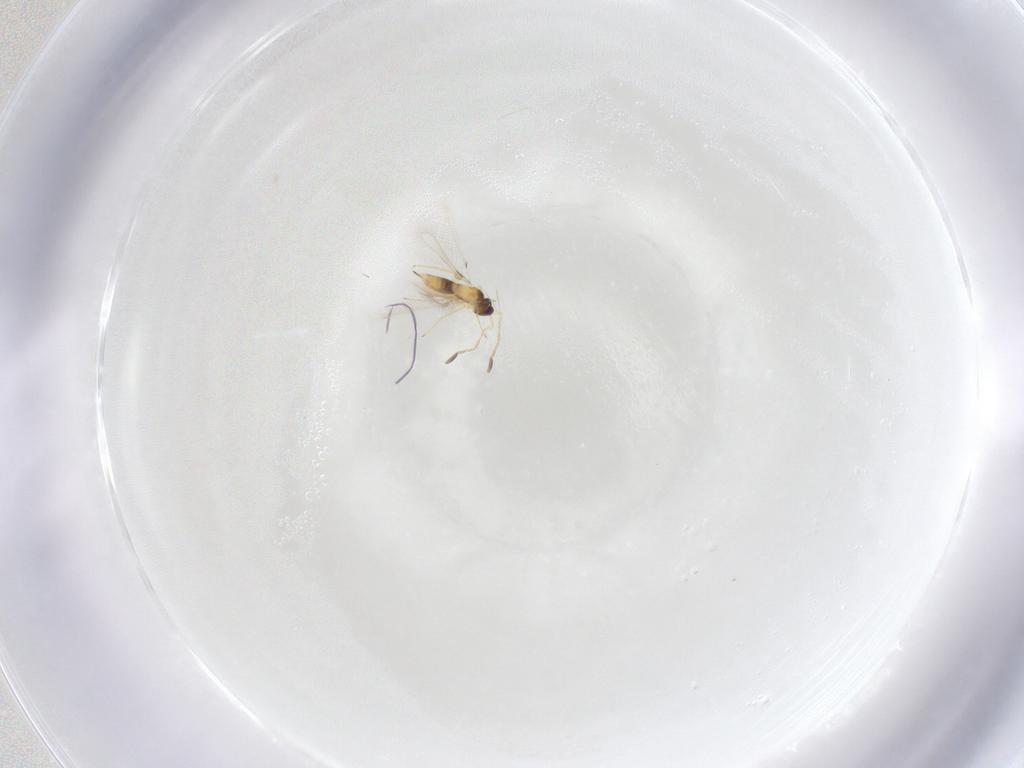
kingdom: Animalia
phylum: Arthropoda
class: Insecta
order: Hymenoptera
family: Mymaridae
